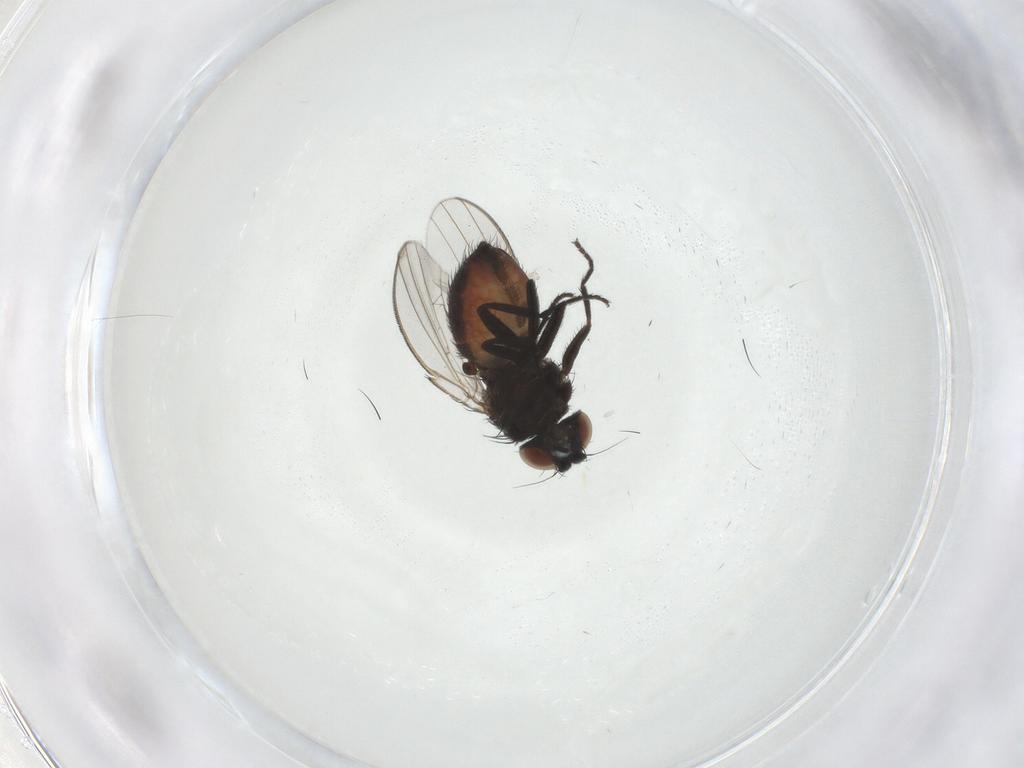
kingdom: Animalia
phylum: Arthropoda
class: Insecta
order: Diptera
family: Milichiidae
